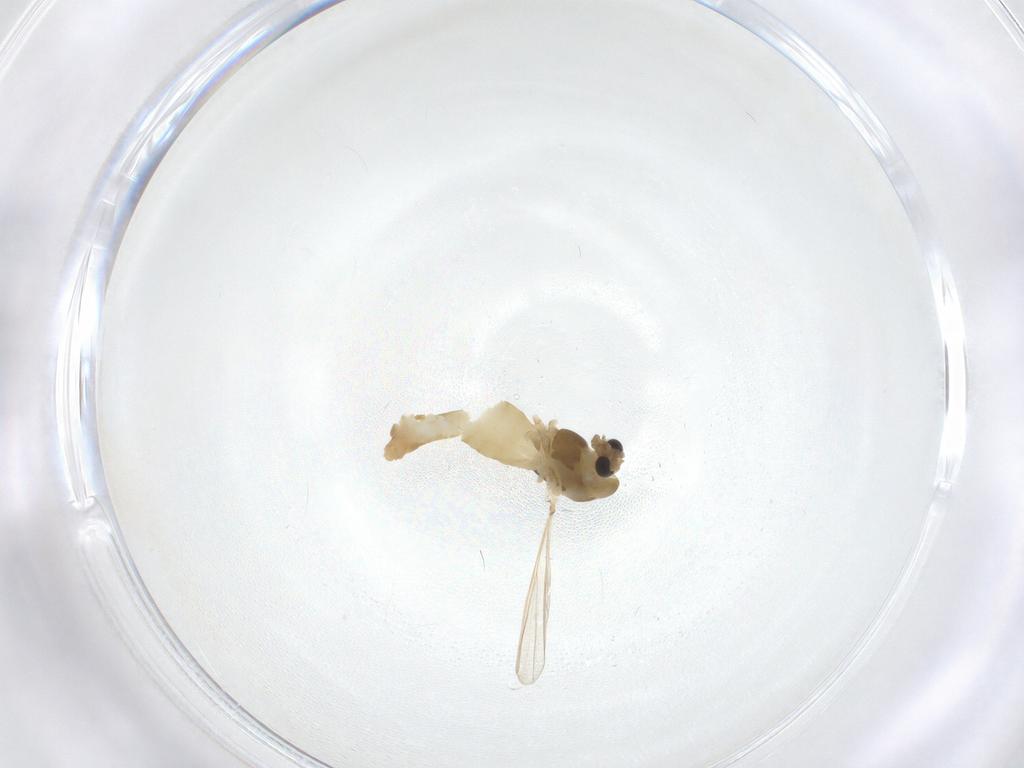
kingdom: Animalia
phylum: Arthropoda
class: Insecta
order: Diptera
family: Chironomidae
